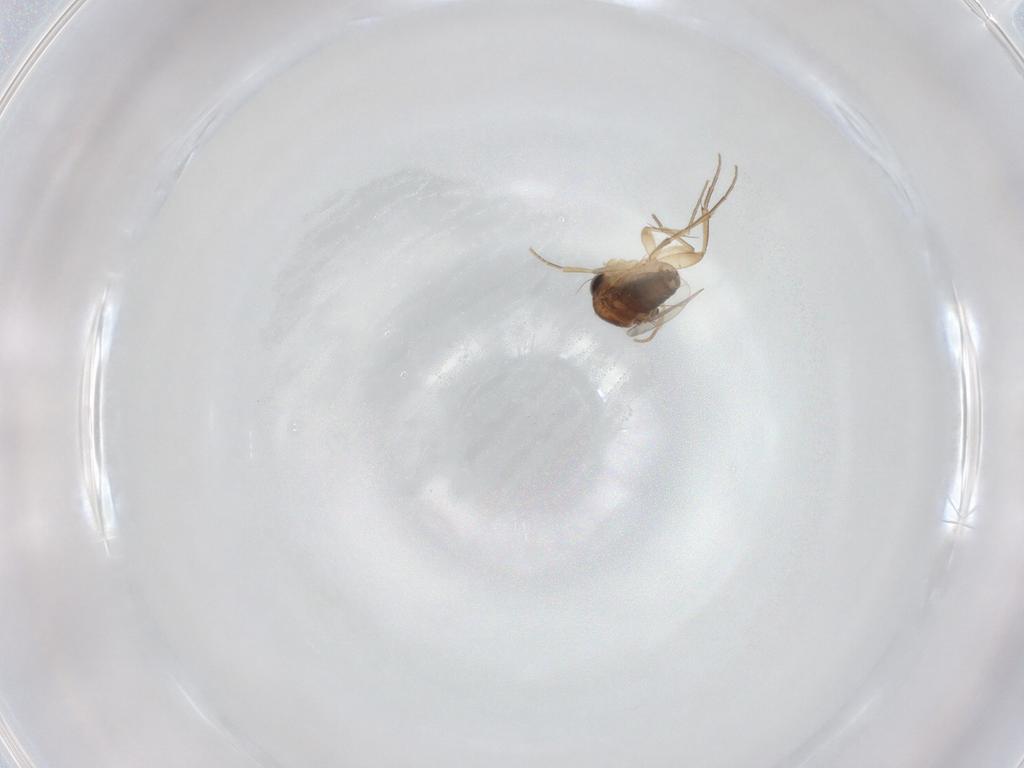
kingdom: Animalia
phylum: Arthropoda
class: Insecta
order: Diptera
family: Phoridae
